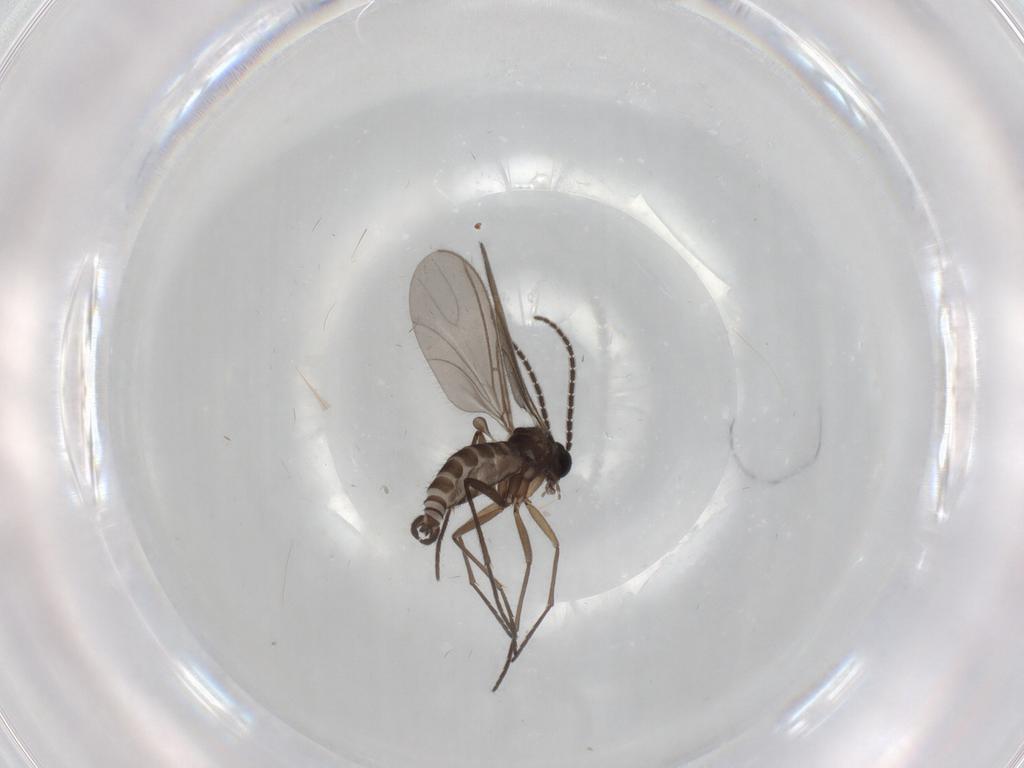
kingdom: Animalia
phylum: Arthropoda
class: Insecta
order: Diptera
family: Sciaridae
